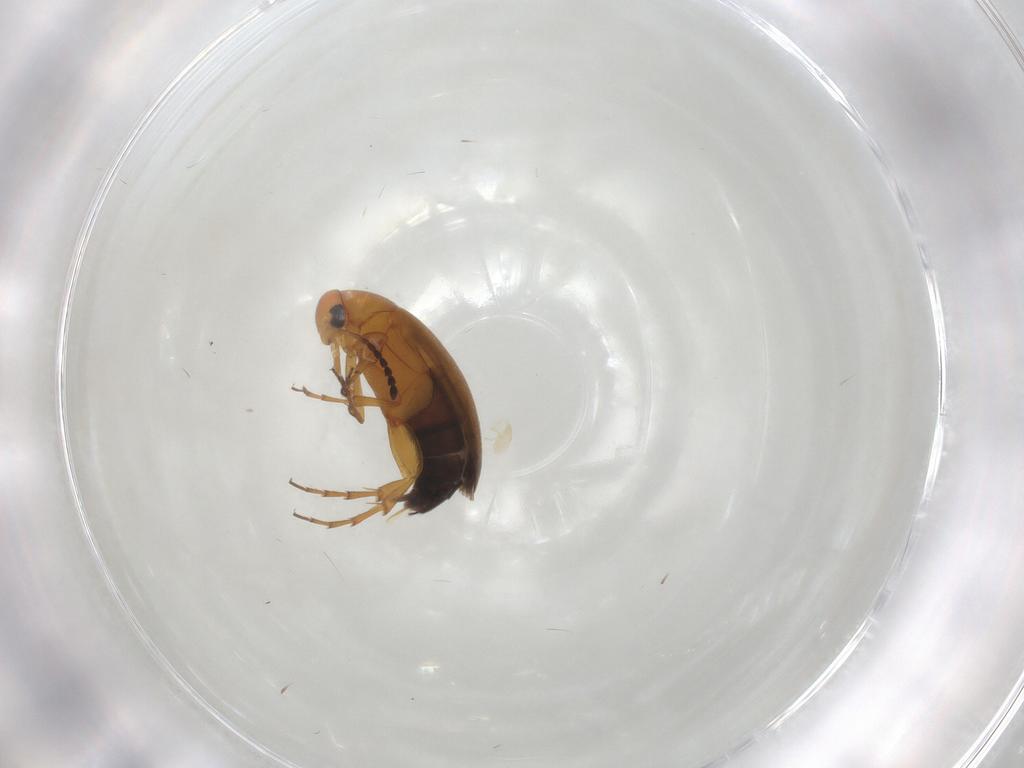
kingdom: Animalia
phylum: Arthropoda
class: Insecta
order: Coleoptera
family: Scraptiidae
